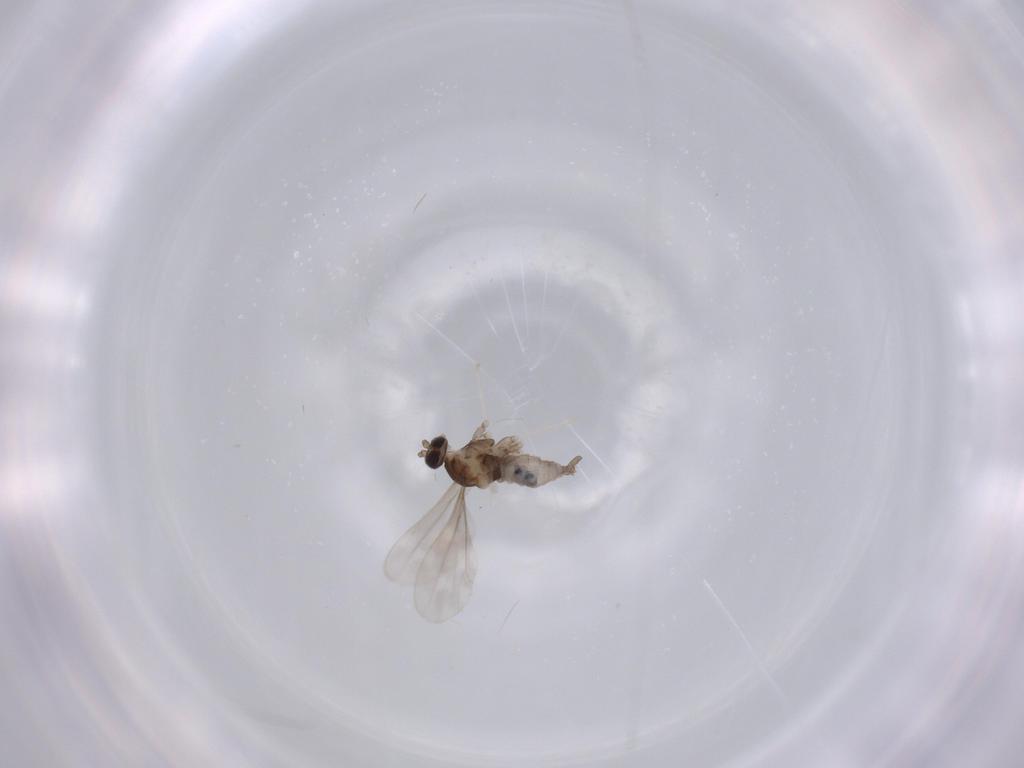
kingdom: Animalia
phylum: Arthropoda
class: Insecta
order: Diptera
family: Cecidomyiidae
